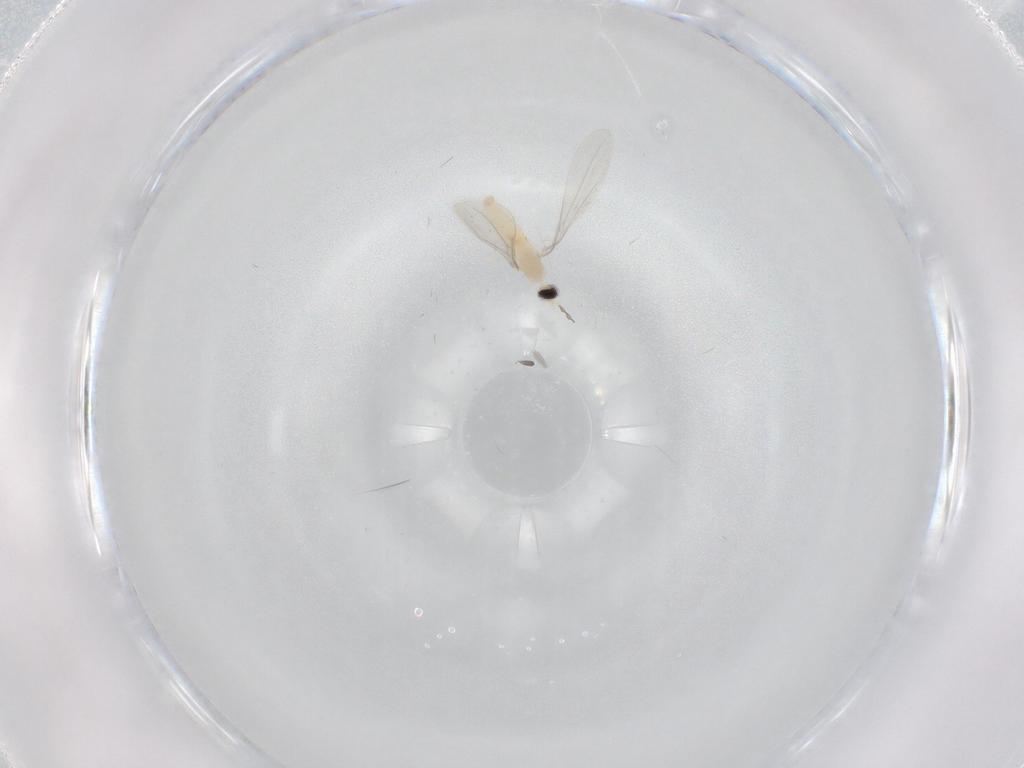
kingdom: Animalia
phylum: Arthropoda
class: Insecta
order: Diptera
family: Cecidomyiidae
